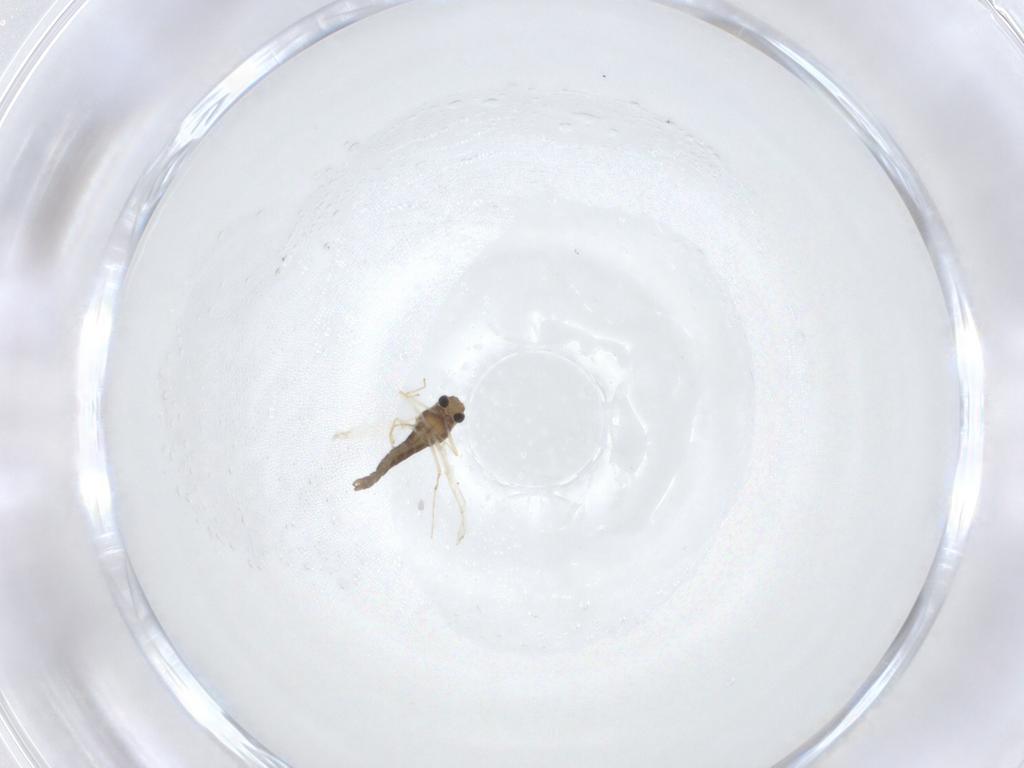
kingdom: Animalia
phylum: Arthropoda
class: Insecta
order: Diptera
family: Chironomidae
